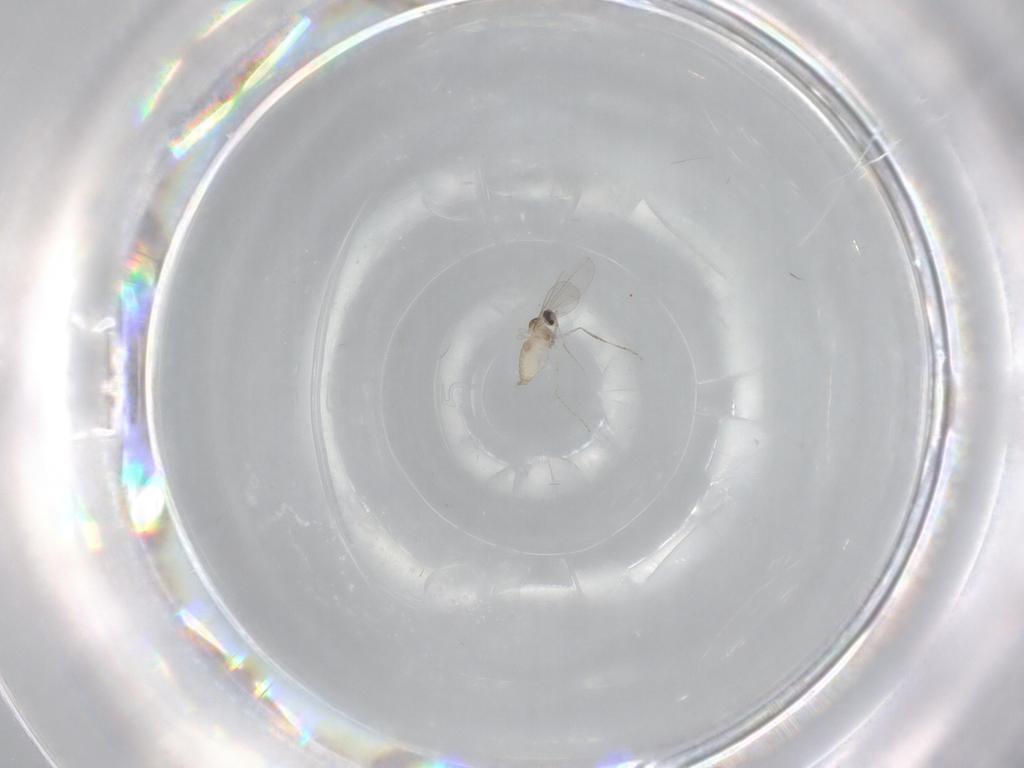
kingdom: Animalia
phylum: Arthropoda
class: Insecta
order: Diptera
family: Cecidomyiidae
